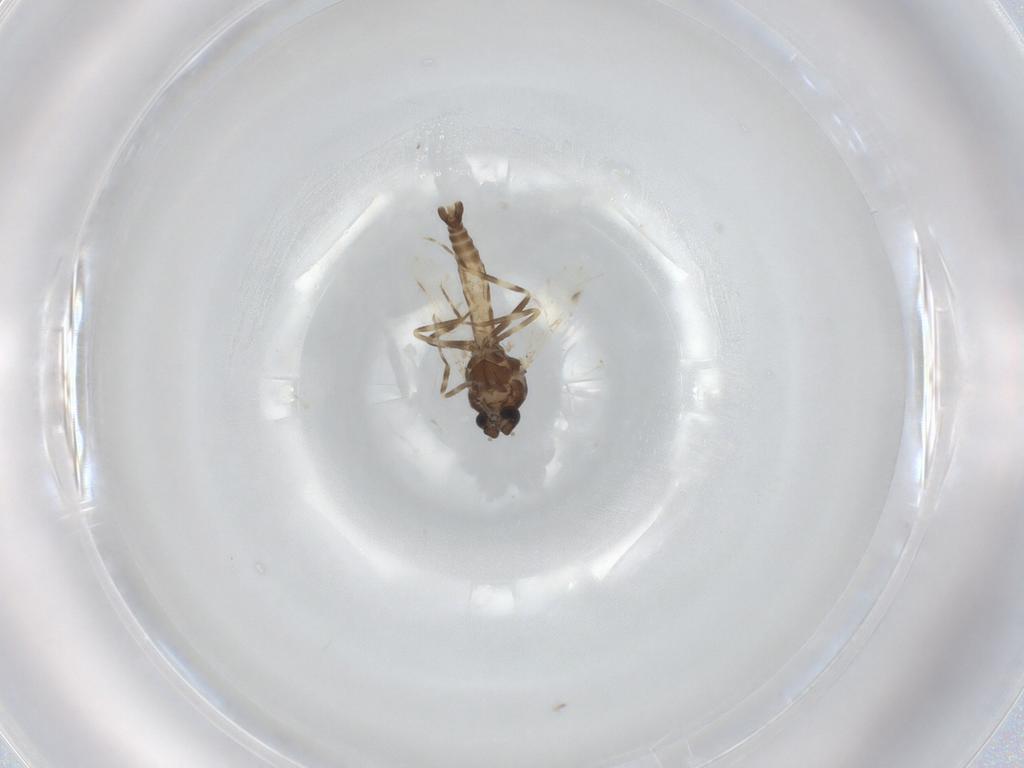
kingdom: Animalia
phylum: Arthropoda
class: Insecta
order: Diptera
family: Ceratopogonidae
